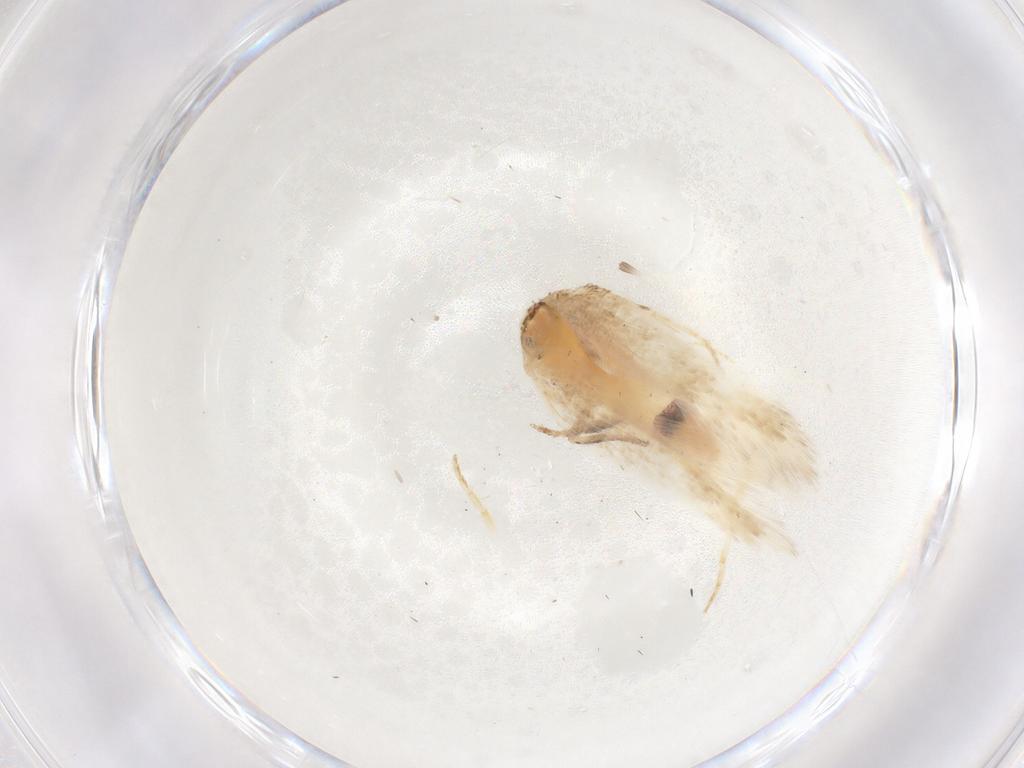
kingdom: Animalia
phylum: Arthropoda
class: Insecta
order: Lepidoptera
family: Cosmopterigidae
